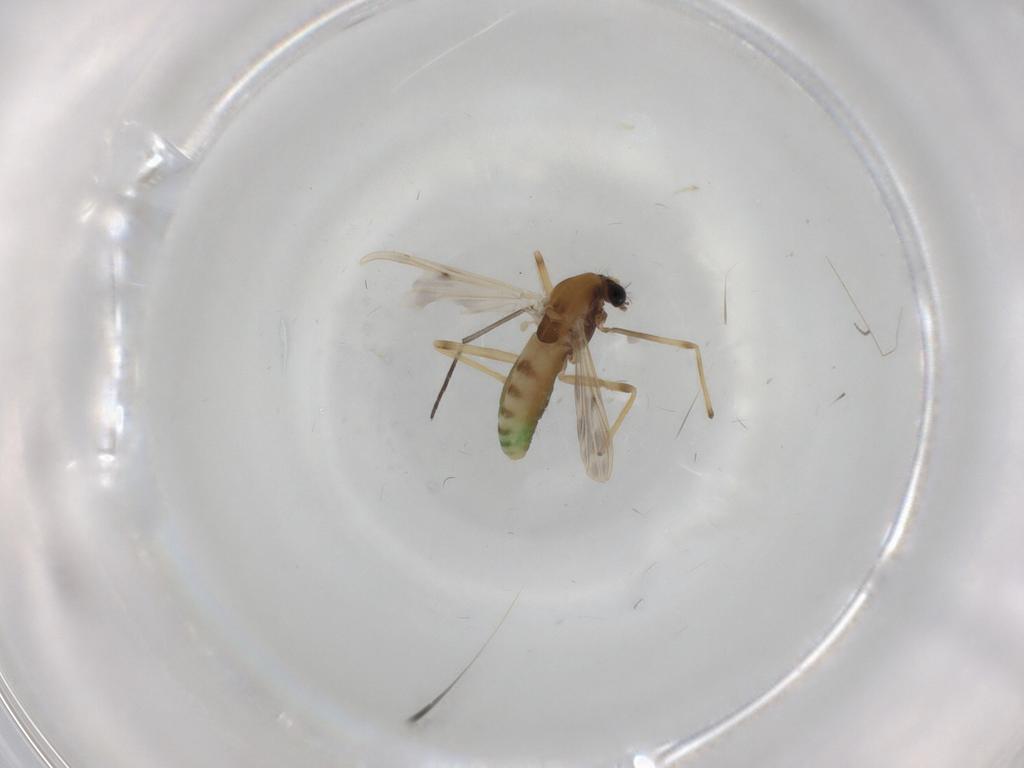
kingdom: Animalia
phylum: Arthropoda
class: Insecta
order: Diptera
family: Chironomidae
